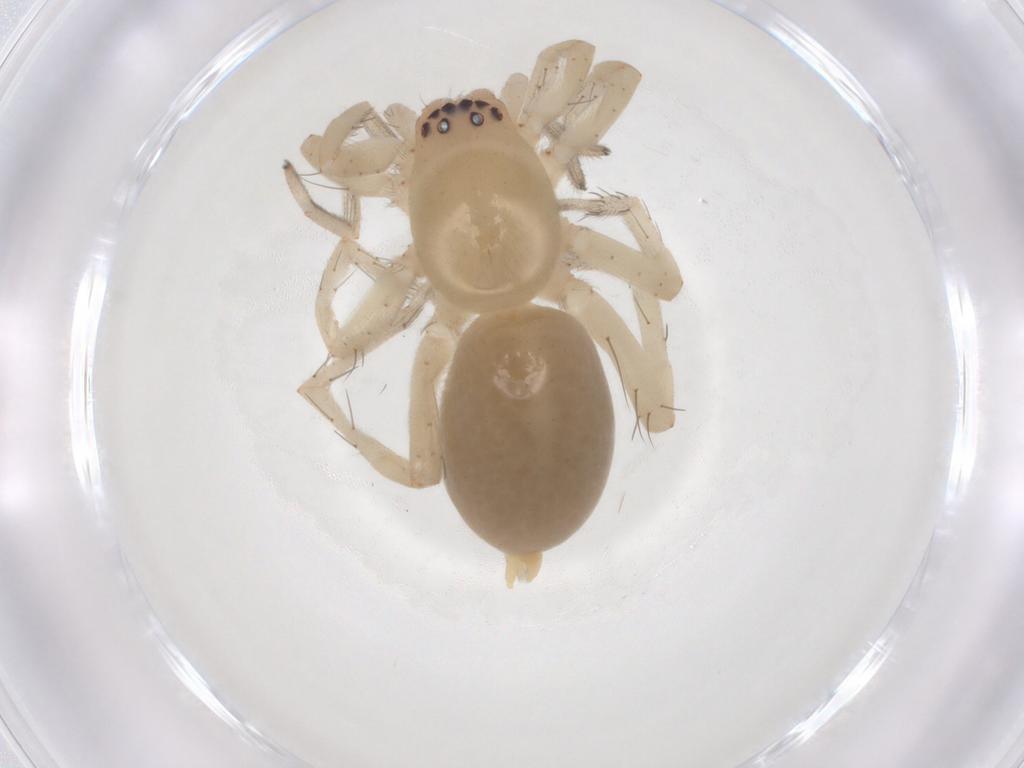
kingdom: Animalia
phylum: Arthropoda
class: Arachnida
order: Araneae
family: Clubionidae
